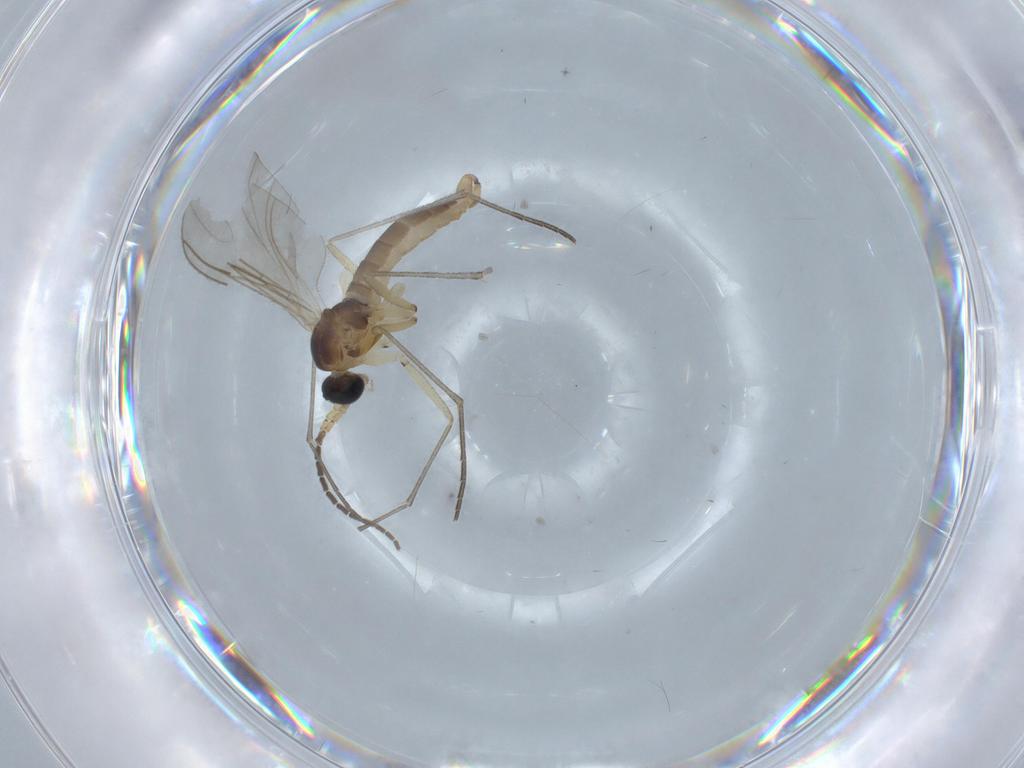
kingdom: Animalia
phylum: Arthropoda
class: Insecta
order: Diptera
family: Sciaridae
